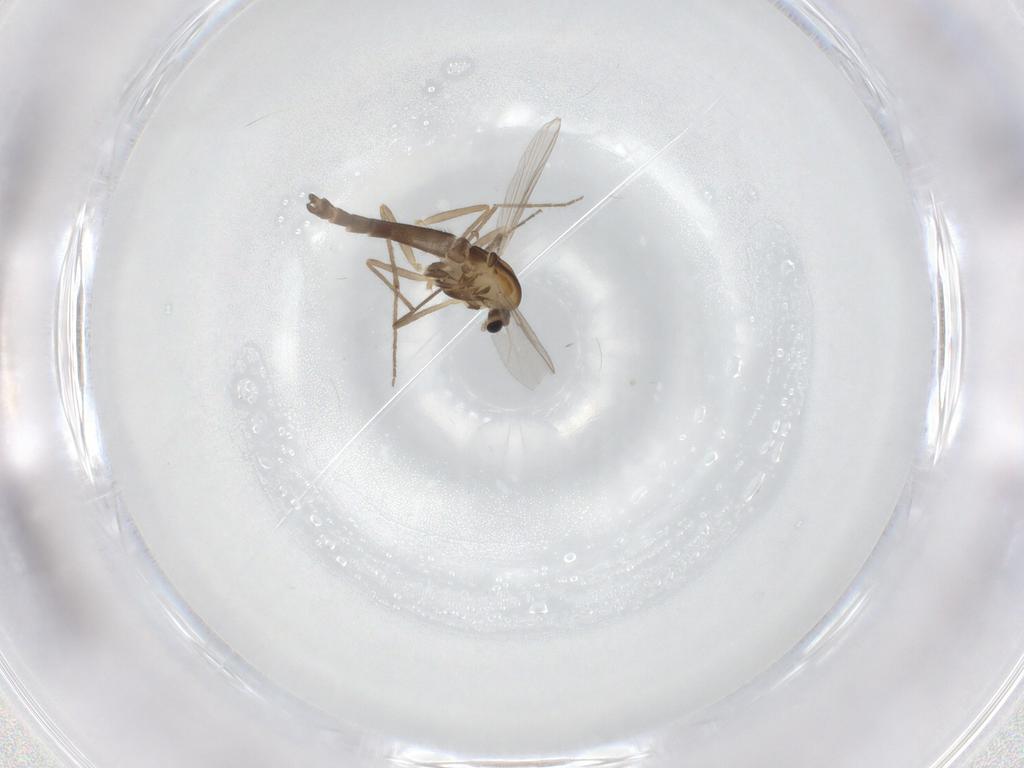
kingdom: Animalia
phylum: Arthropoda
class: Insecta
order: Diptera
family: Chironomidae
